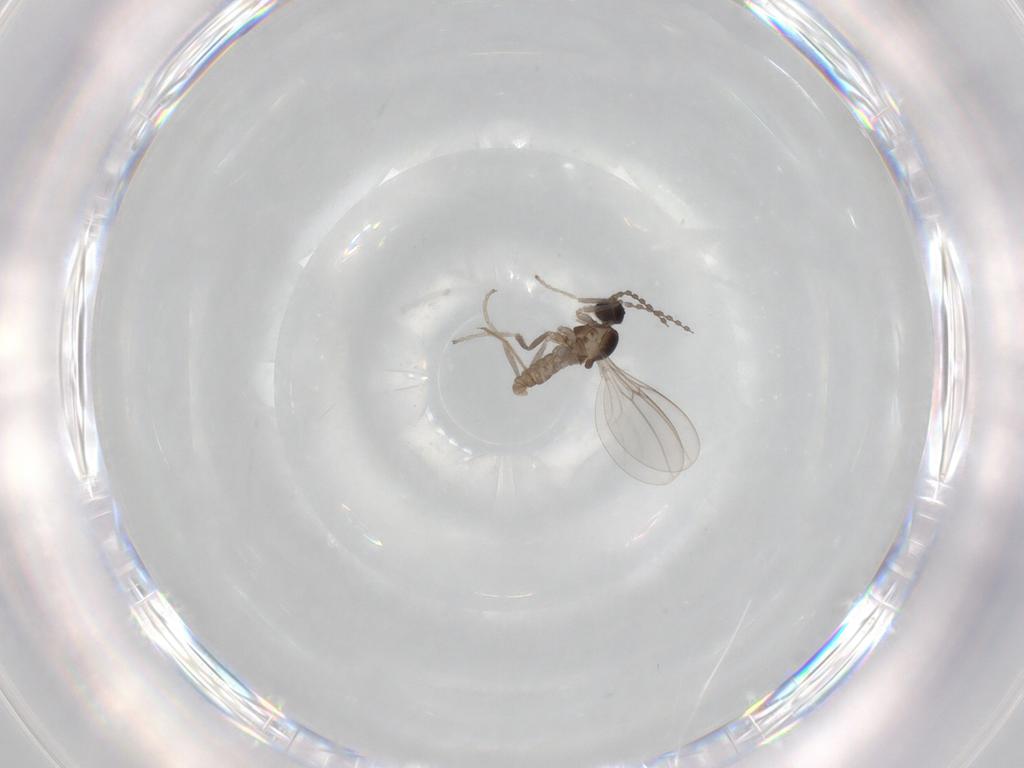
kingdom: Animalia
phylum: Arthropoda
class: Insecta
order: Diptera
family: Cecidomyiidae
